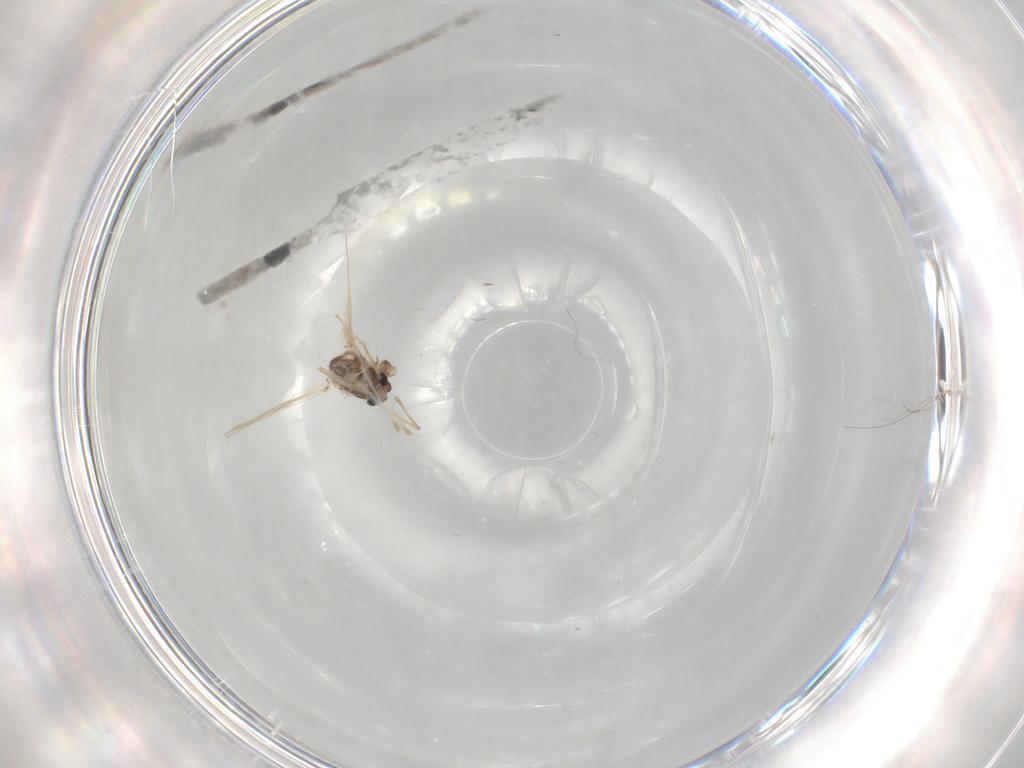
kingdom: Animalia
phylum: Arthropoda
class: Insecta
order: Diptera
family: Chironomidae
